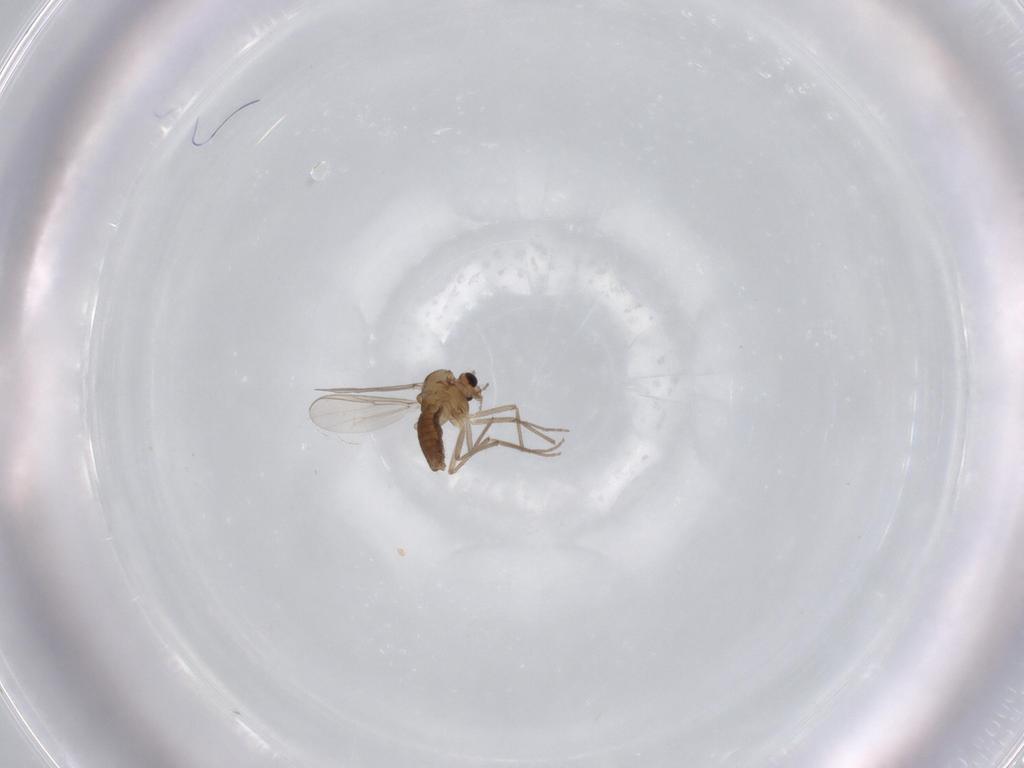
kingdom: Animalia
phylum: Arthropoda
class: Insecta
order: Diptera
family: Chironomidae
